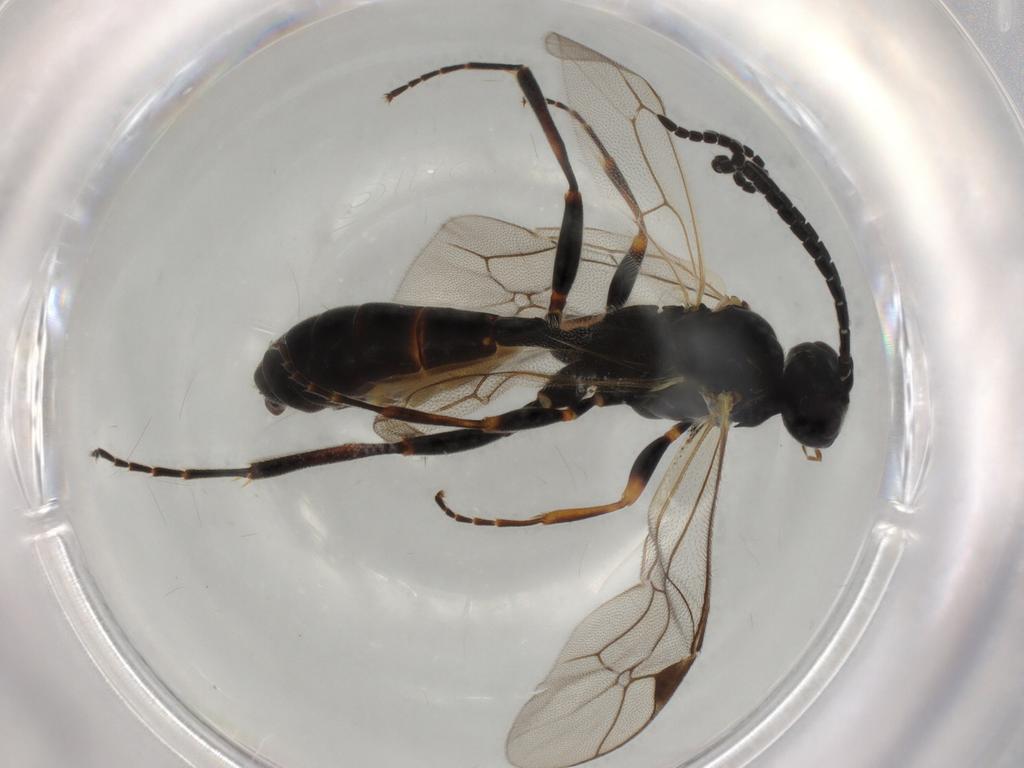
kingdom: Animalia
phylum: Arthropoda
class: Insecta
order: Hymenoptera
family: Ichneumonidae
